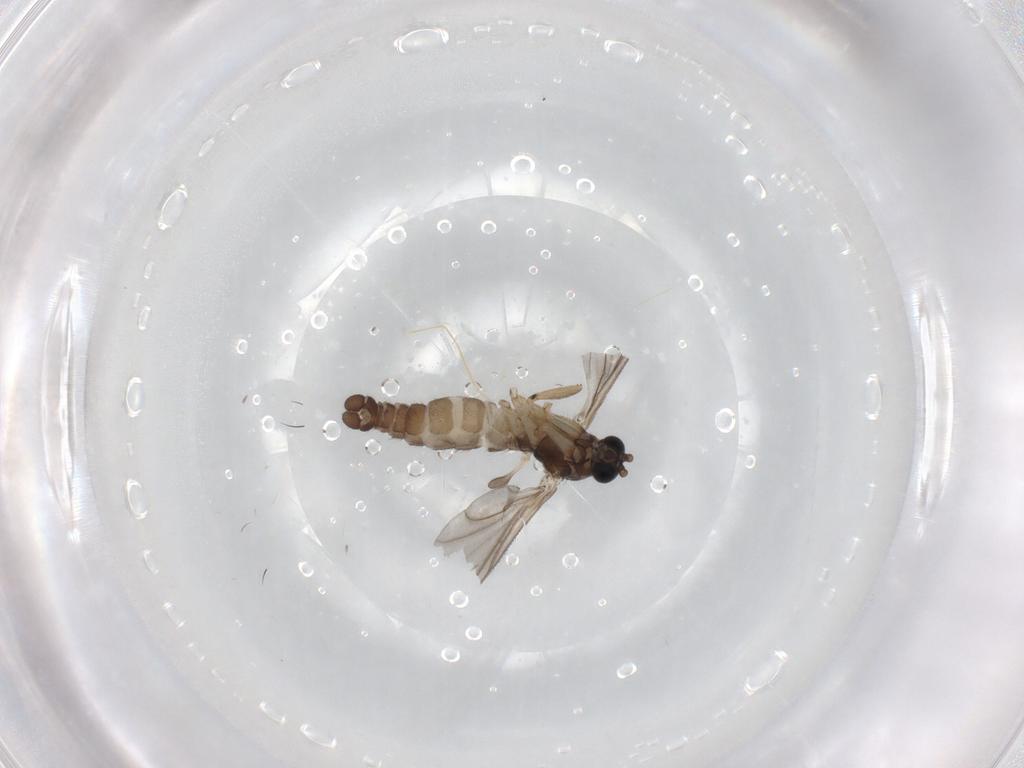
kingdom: Animalia
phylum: Arthropoda
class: Insecta
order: Diptera
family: Sciaridae
